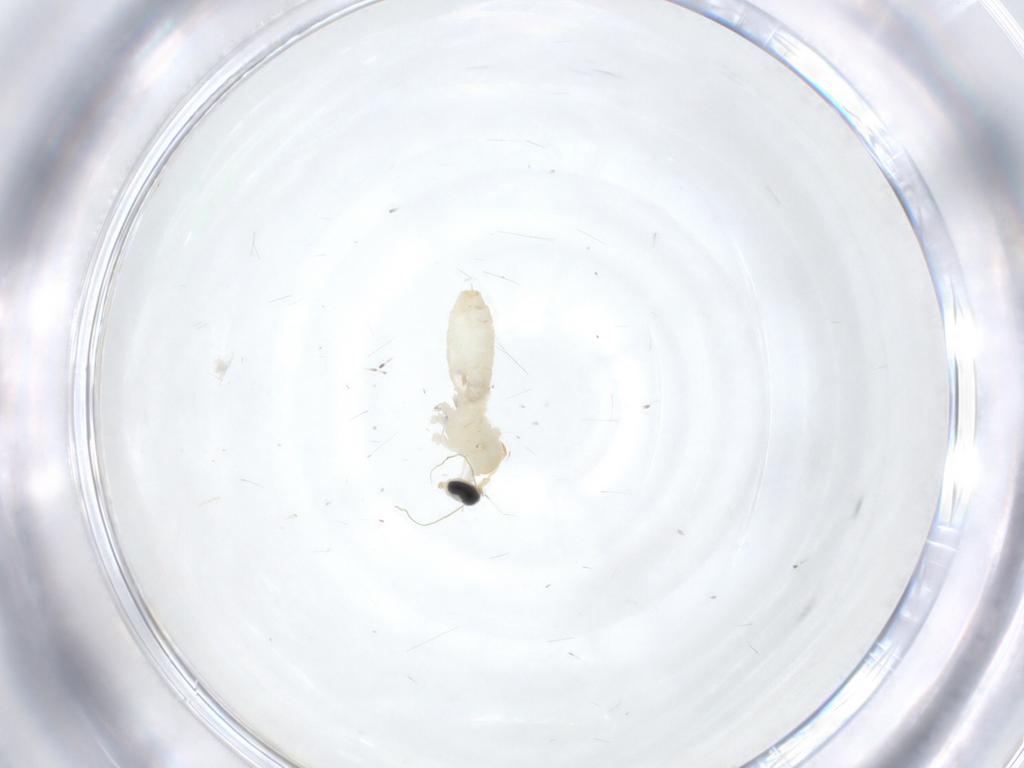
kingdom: Animalia
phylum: Arthropoda
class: Insecta
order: Diptera
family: Cecidomyiidae
